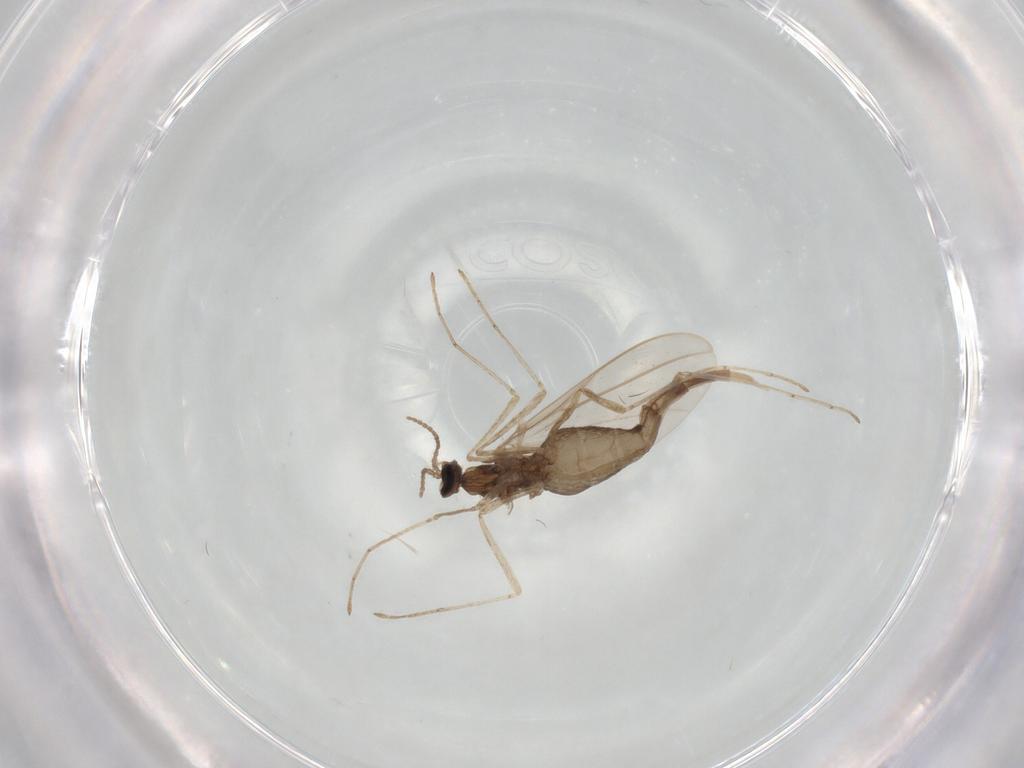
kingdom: Animalia
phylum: Arthropoda
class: Insecta
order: Diptera
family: Cecidomyiidae
